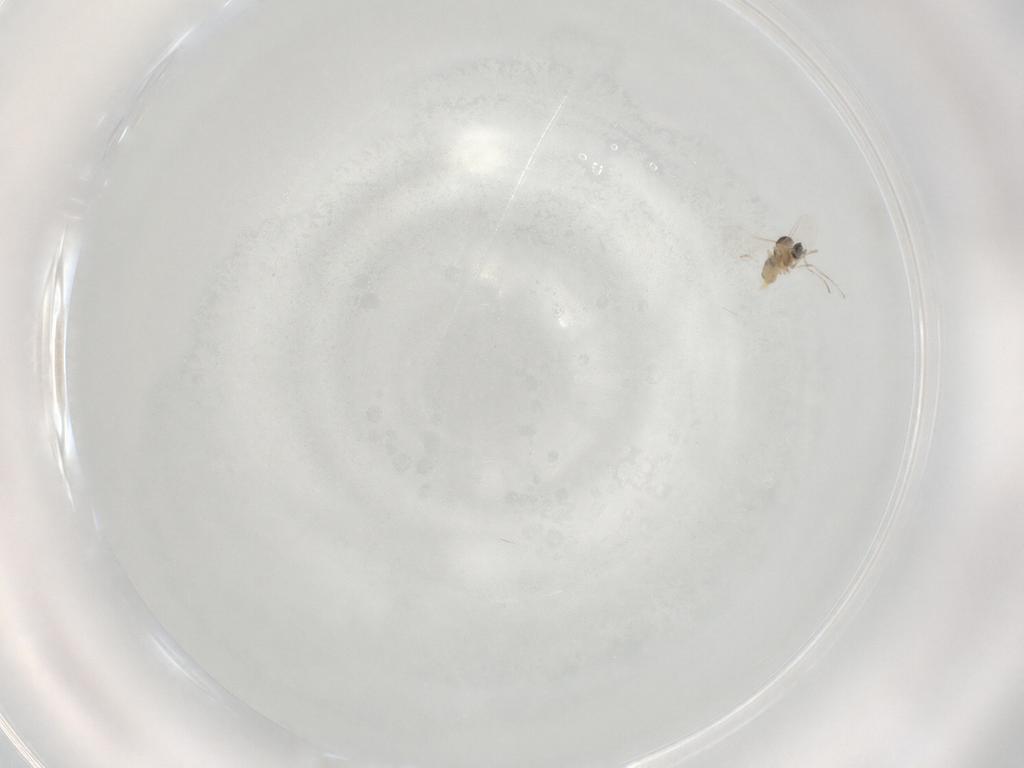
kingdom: Animalia
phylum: Arthropoda
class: Insecta
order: Diptera
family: Cecidomyiidae
